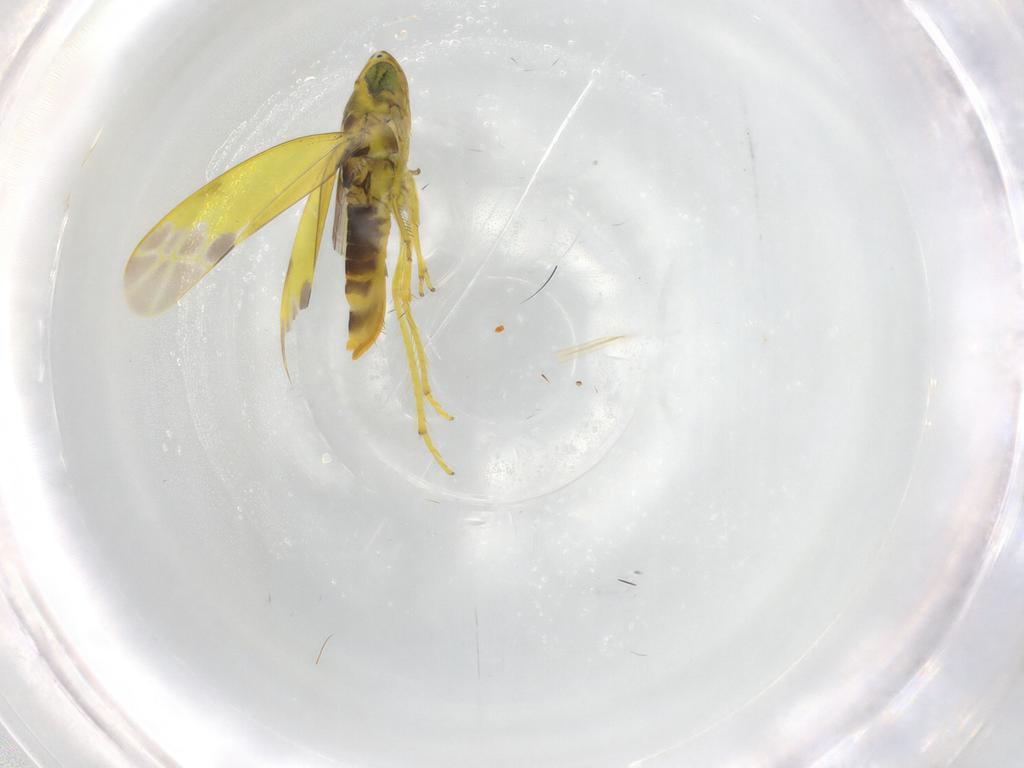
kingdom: Animalia
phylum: Arthropoda
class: Insecta
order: Hemiptera
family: Cicadellidae
